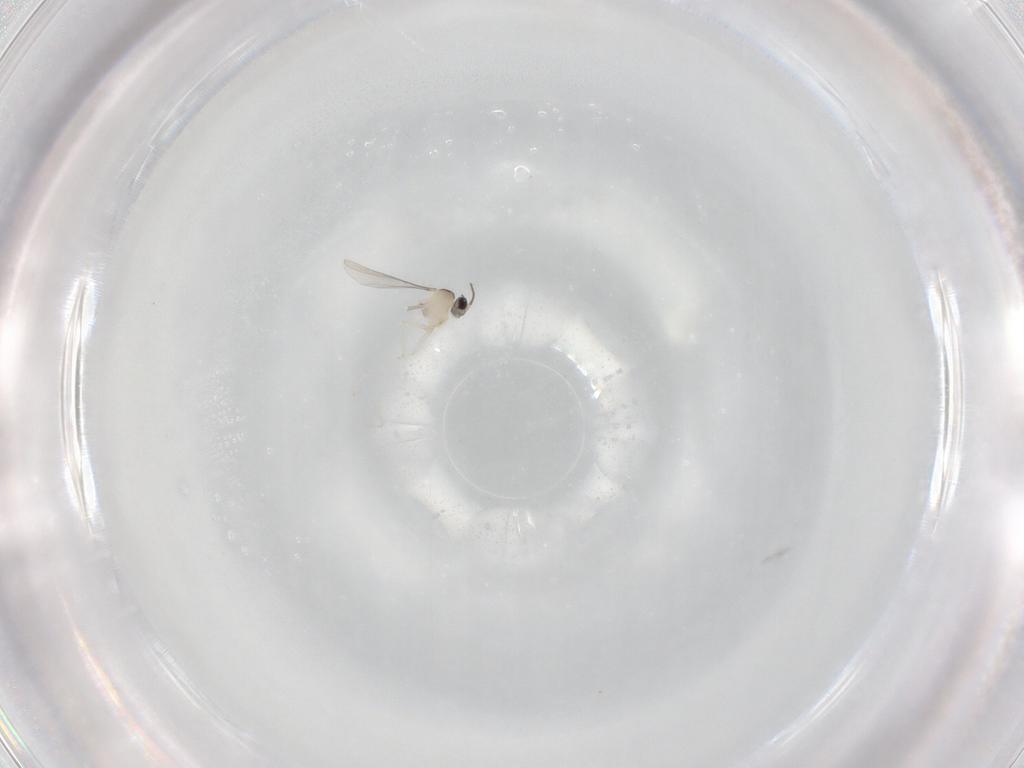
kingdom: Animalia
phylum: Arthropoda
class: Insecta
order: Diptera
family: Cecidomyiidae
